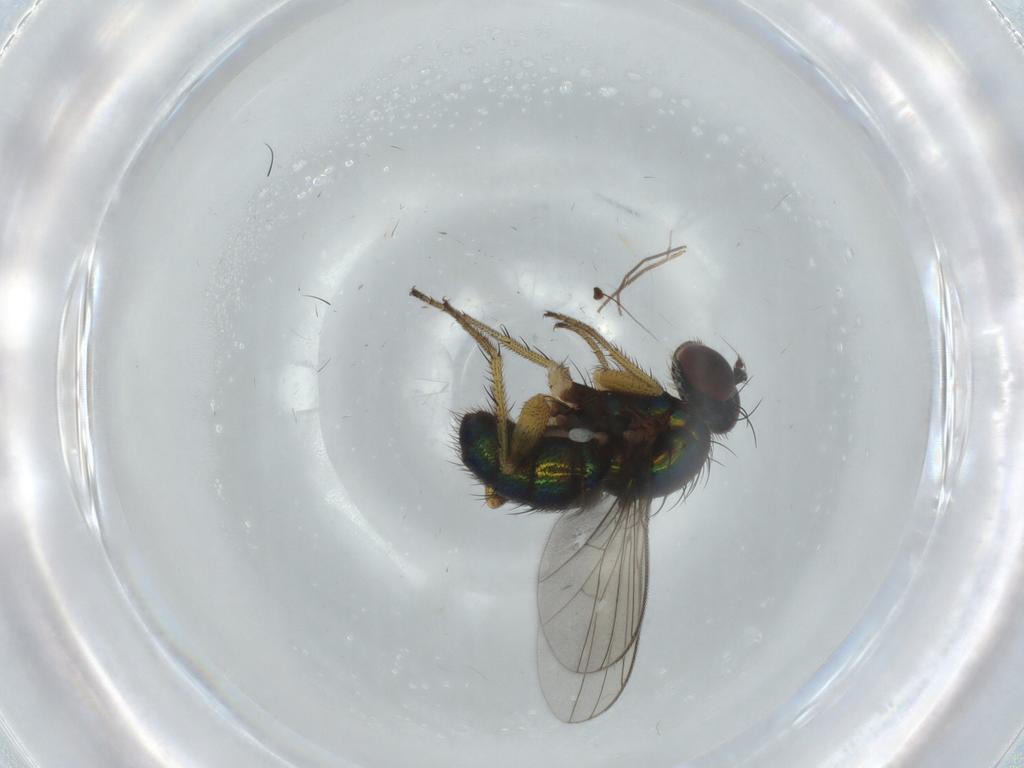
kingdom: Animalia
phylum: Arthropoda
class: Insecta
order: Diptera
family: Dolichopodidae
